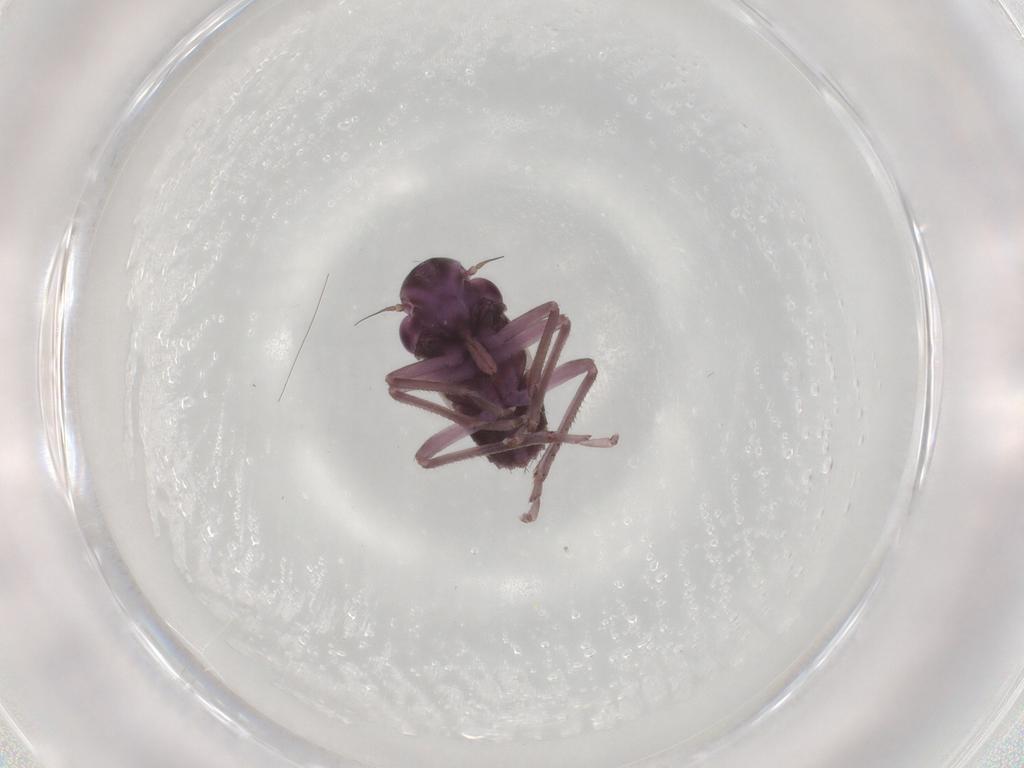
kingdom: Animalia
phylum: Arthropoda
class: Insecta
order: Hemiptera
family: Cicadellidae
